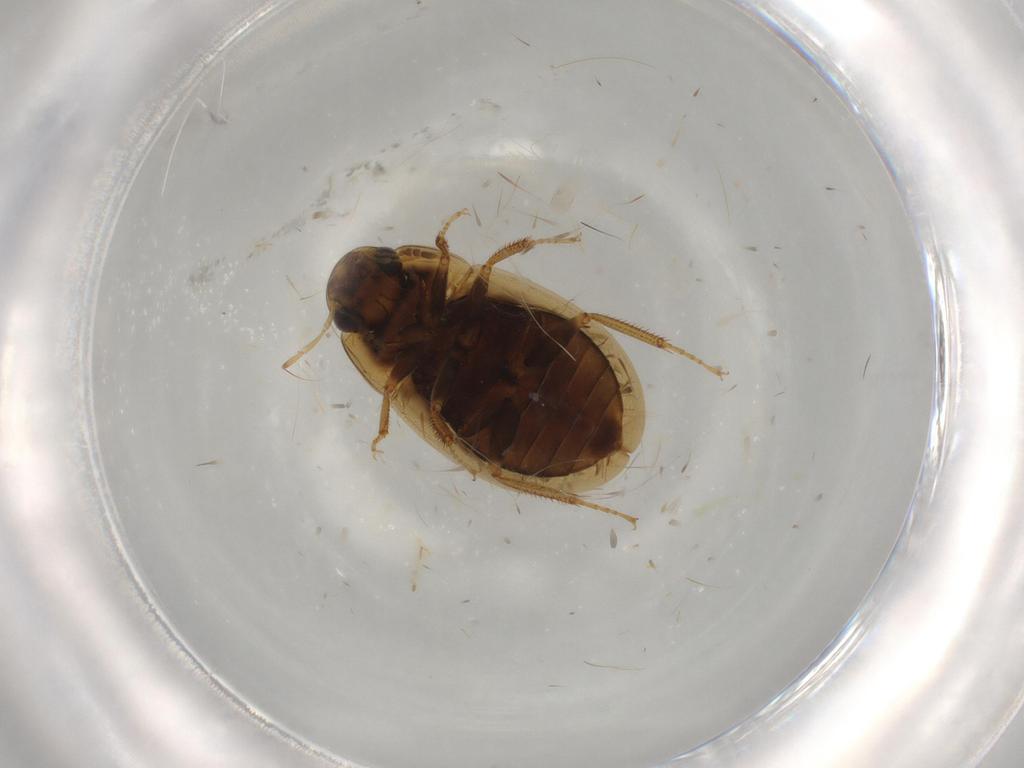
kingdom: Animalia
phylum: Arthropoda
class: Insecta
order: Coleoptera
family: Hydrophilidae
